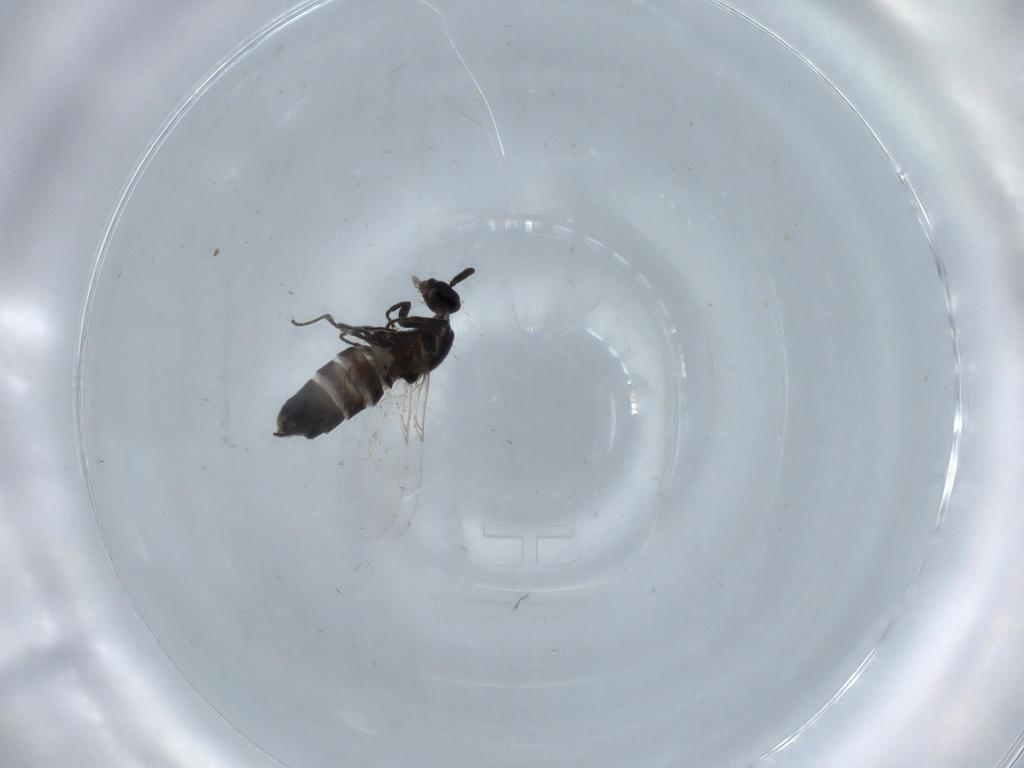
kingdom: Animalia
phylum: Arthropoda
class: Insecta
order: Diptera
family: Scatopsidae
